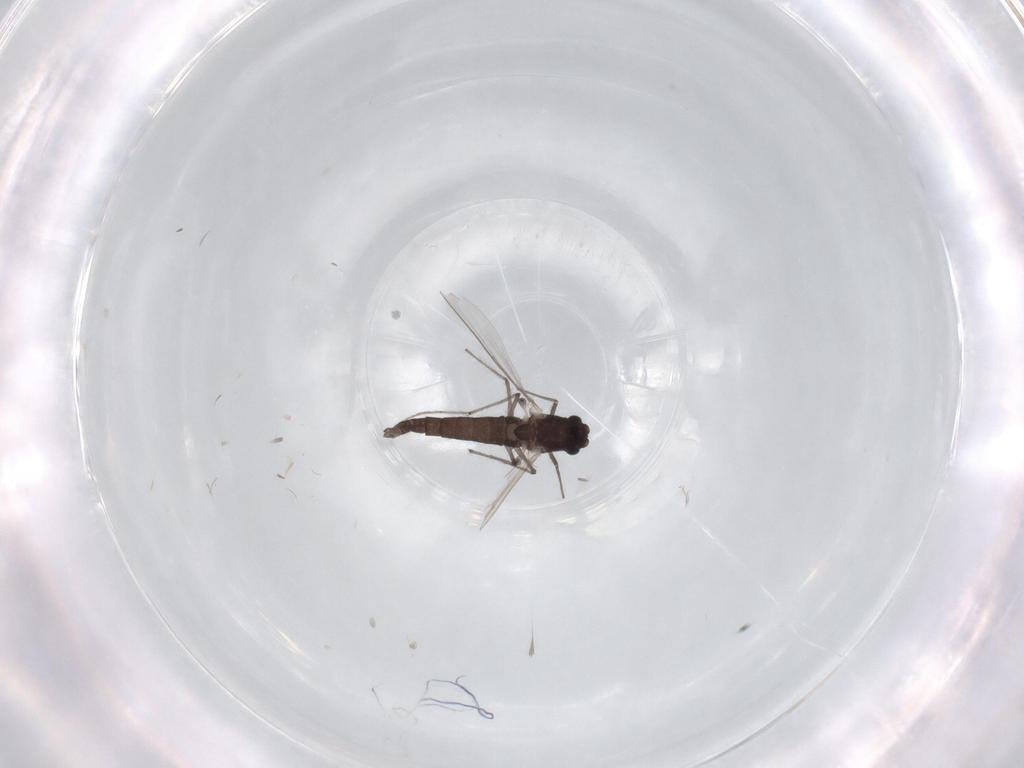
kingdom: Animalia
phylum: Arthropoda
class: Insecta
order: Diptera
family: Chironomidae
